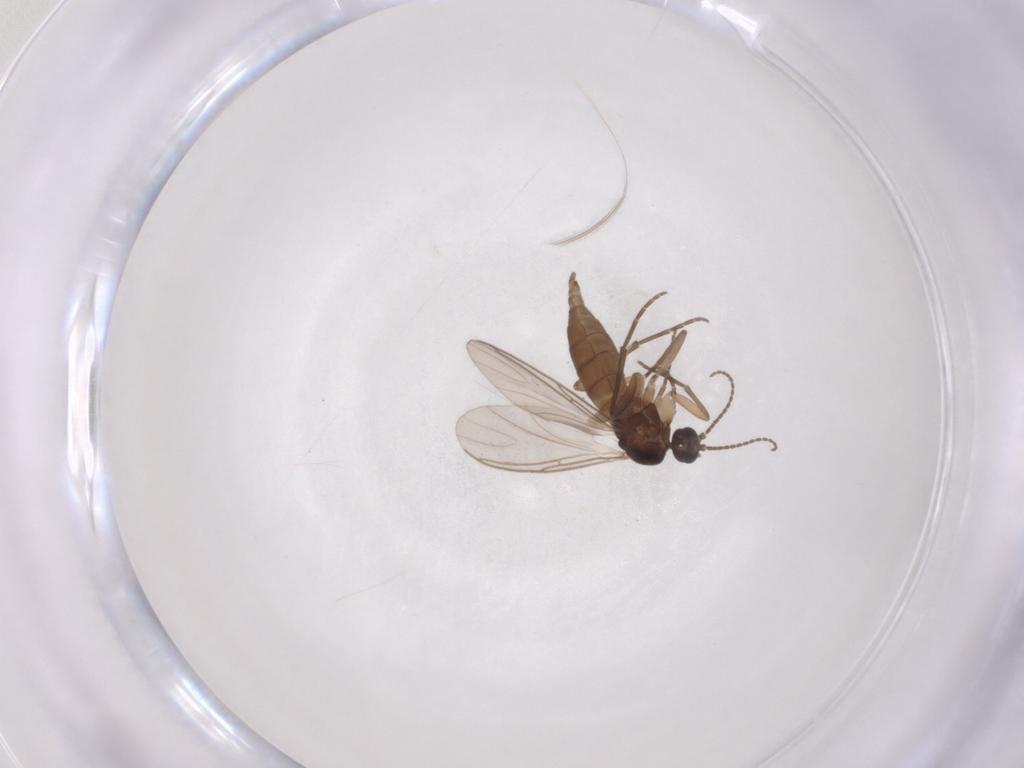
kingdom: Animalia
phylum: Arthropoda
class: Insecta
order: Diptera
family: Sciaridae
